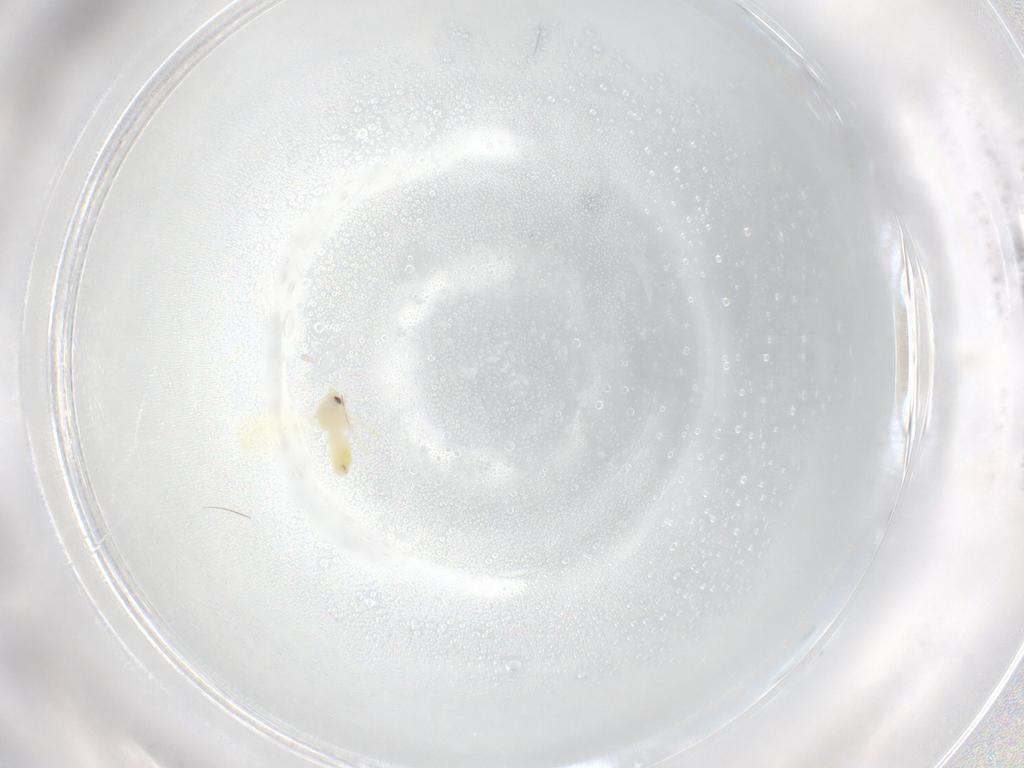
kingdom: Animalia
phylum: Arthropoda
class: Insecta
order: Hemiptera
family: Aleyrodidae
